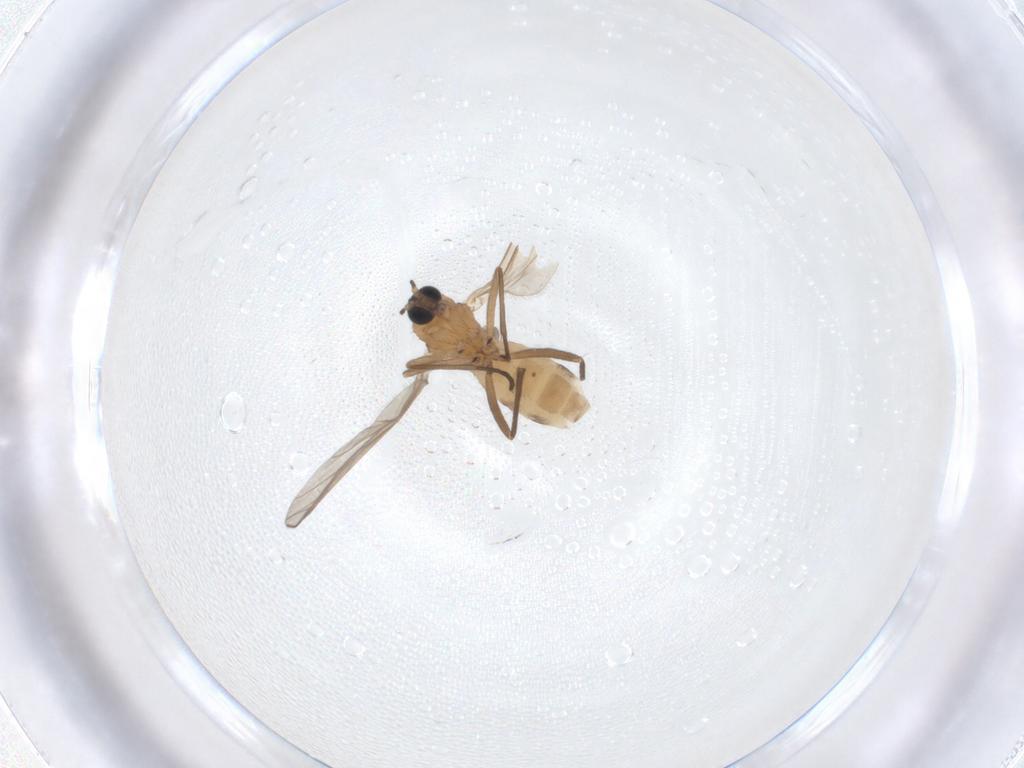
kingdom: Animalia
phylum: Arthropoda
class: Insecta
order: Diptera
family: Sciaridae
